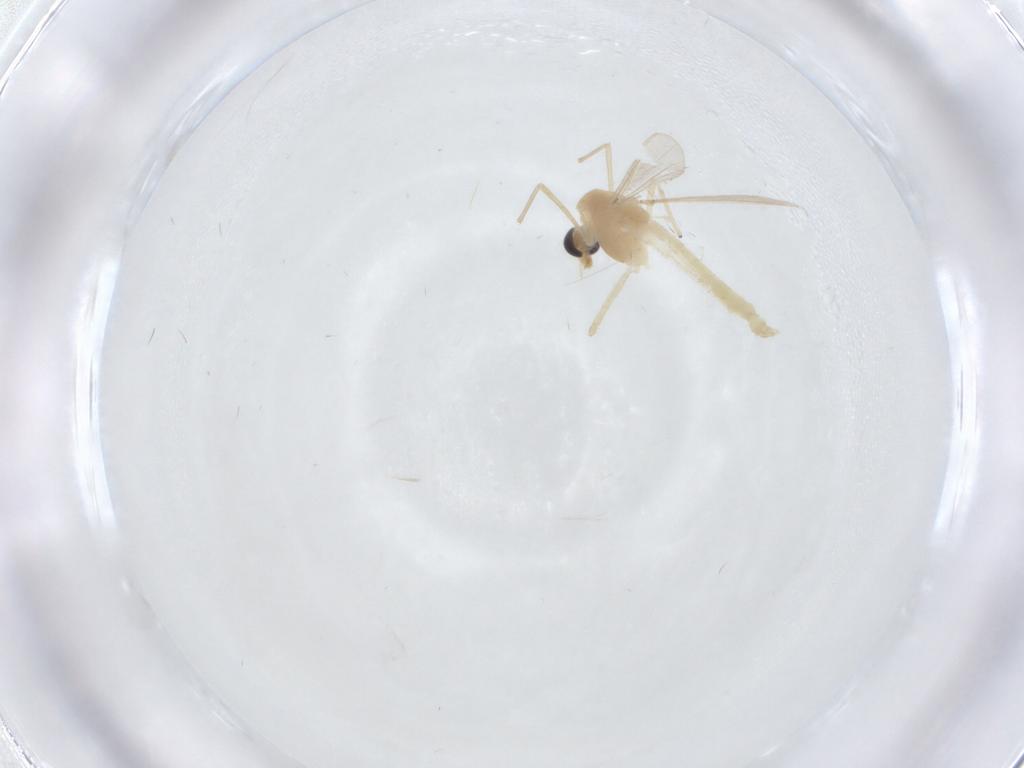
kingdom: Animalia
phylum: Arthropoda
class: Insecta
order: Diptera
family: Chironomidae
